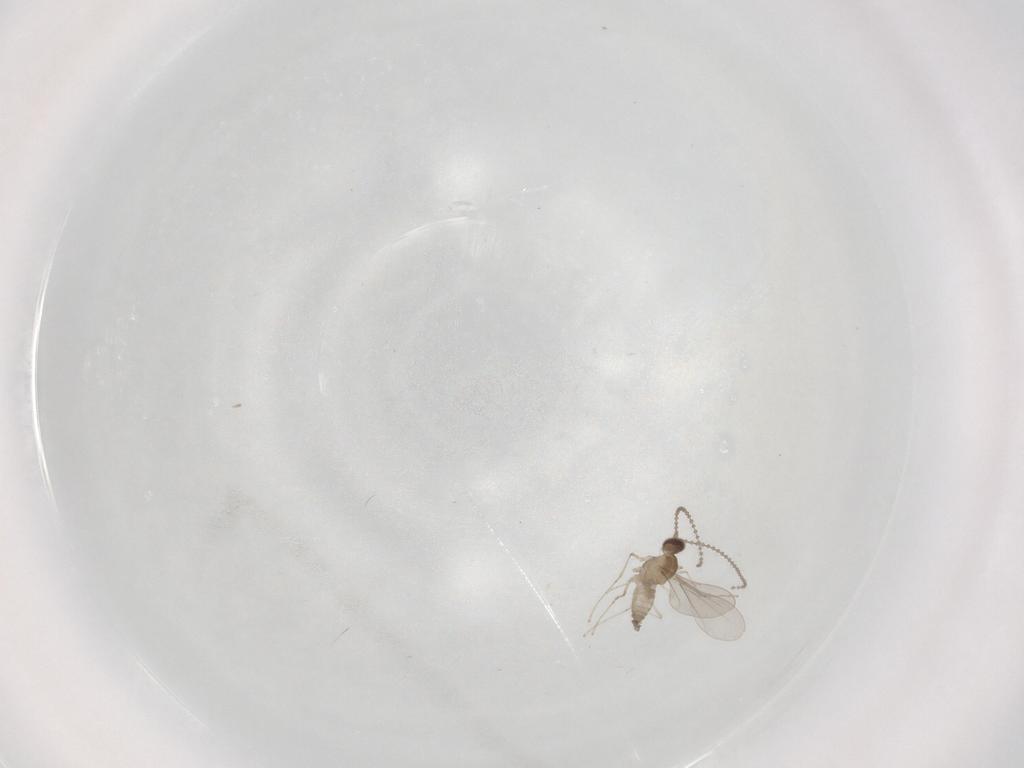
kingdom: Animalia
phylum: Arthropoda
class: Insecta
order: Diptera
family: Cecidomyiidae
